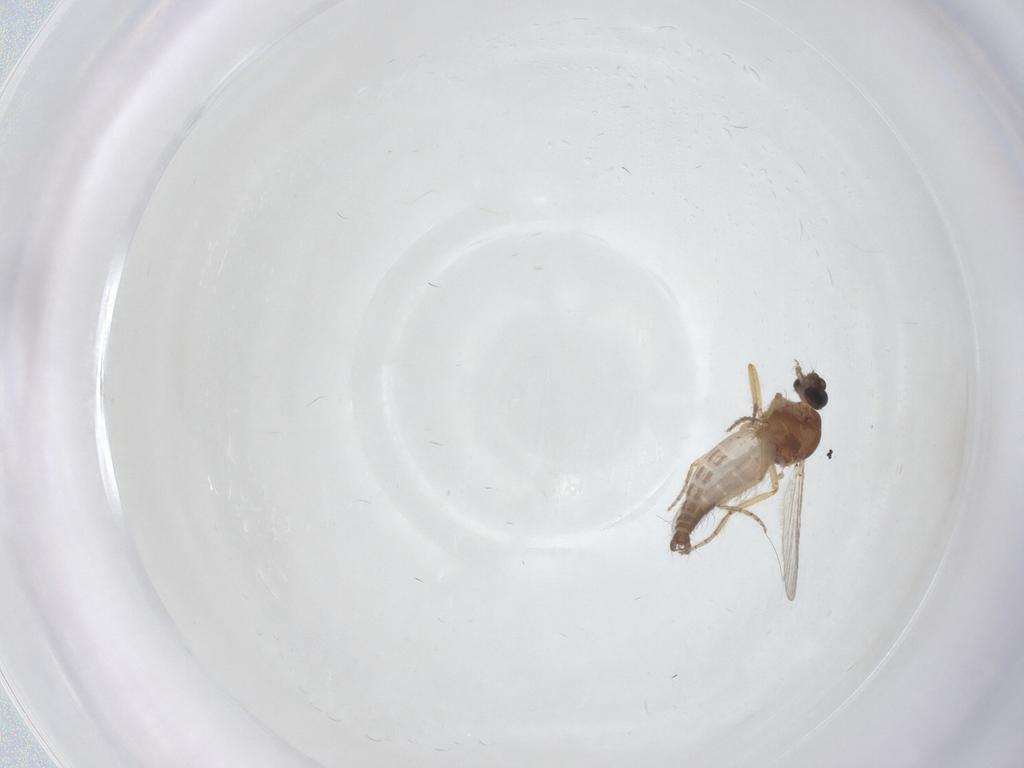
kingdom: Animalia
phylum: Arthropoda
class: Insecta
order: Diptera
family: Ceratopogonidae
